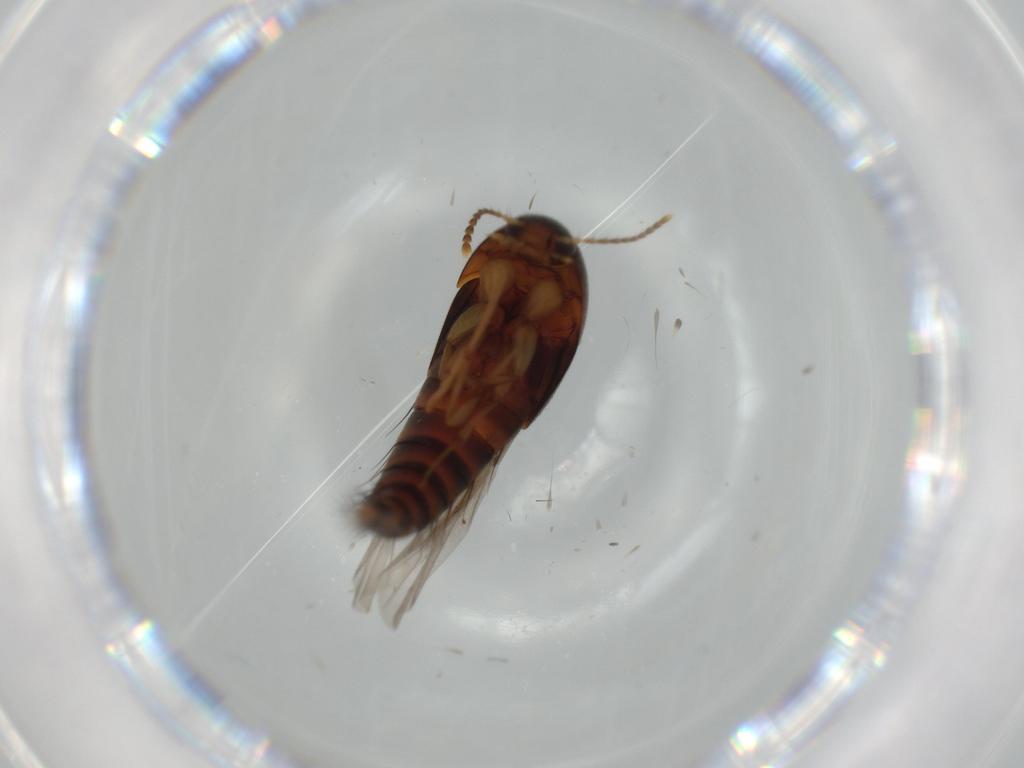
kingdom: Animalia
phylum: Arthropoda
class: Insecta
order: Coleoptera
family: Staphylinidae
